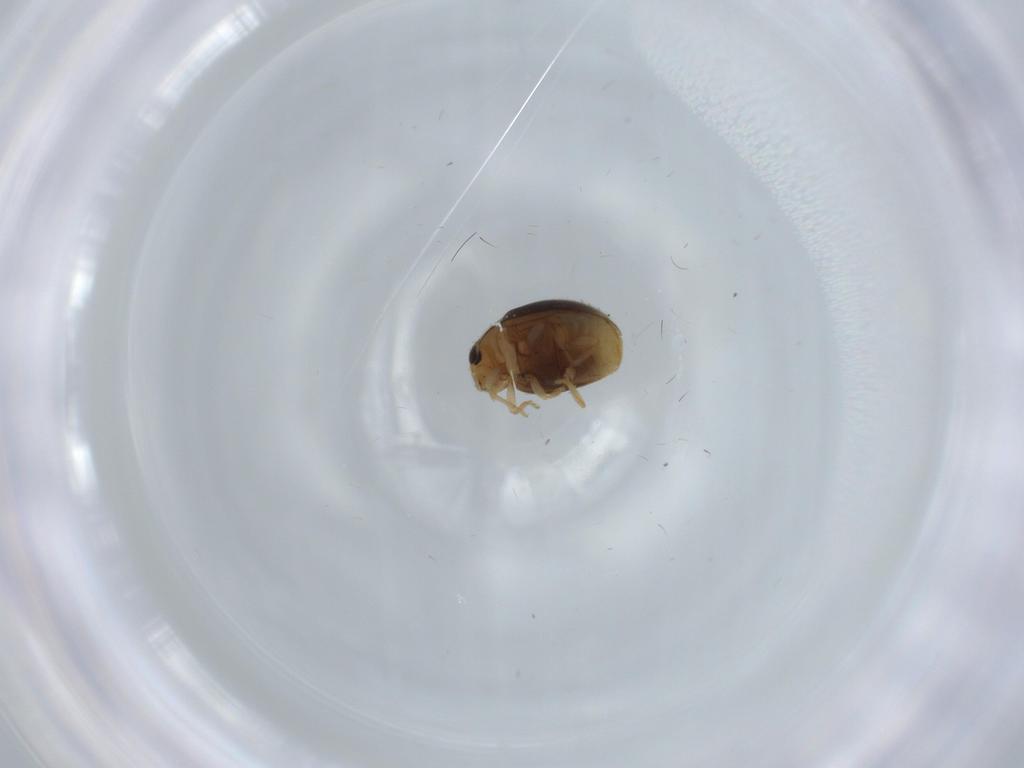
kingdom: Animalia
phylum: Arthropoda
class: Insecta
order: Coleoptera
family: Coccinellidae
